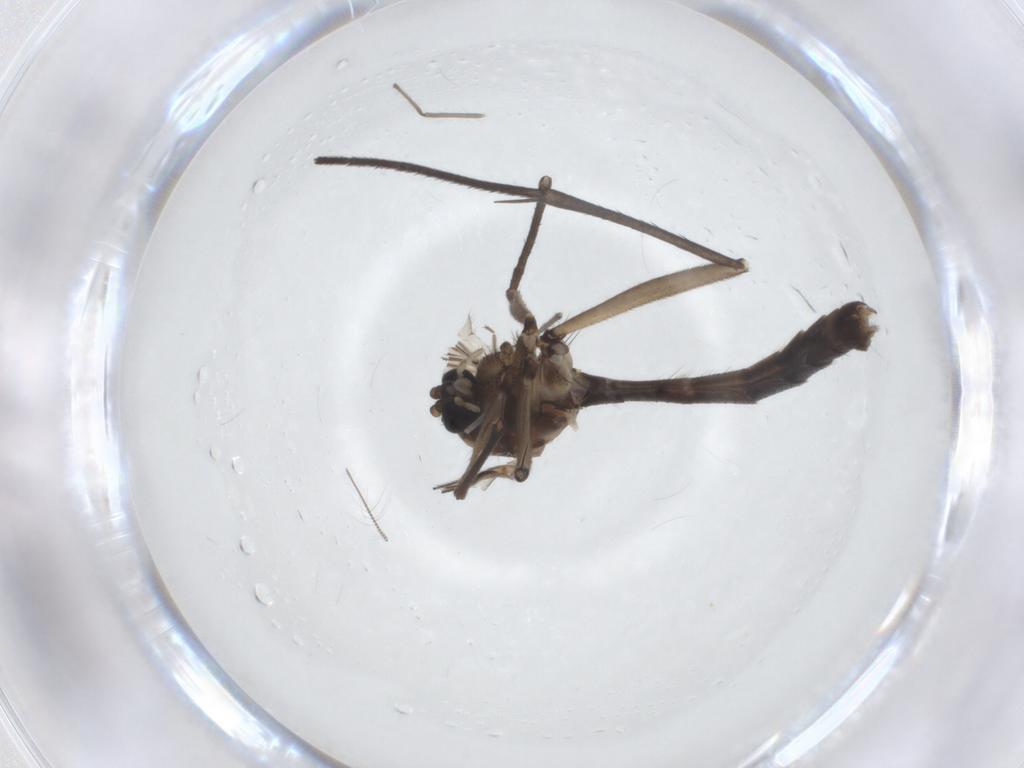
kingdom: Animalia
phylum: Arthropoda
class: Insecta
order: Diptera
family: Mycetophilidae
